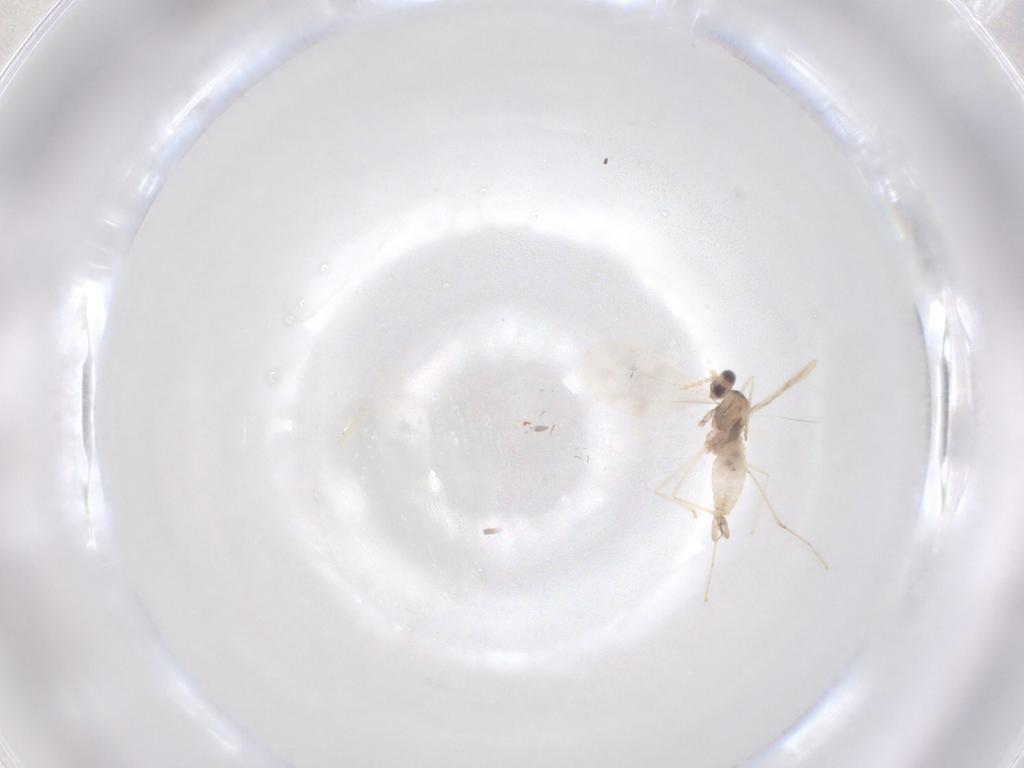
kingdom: Animalia
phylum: Arthropoda
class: Insecta
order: Diptera
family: Cecidomyiidae
